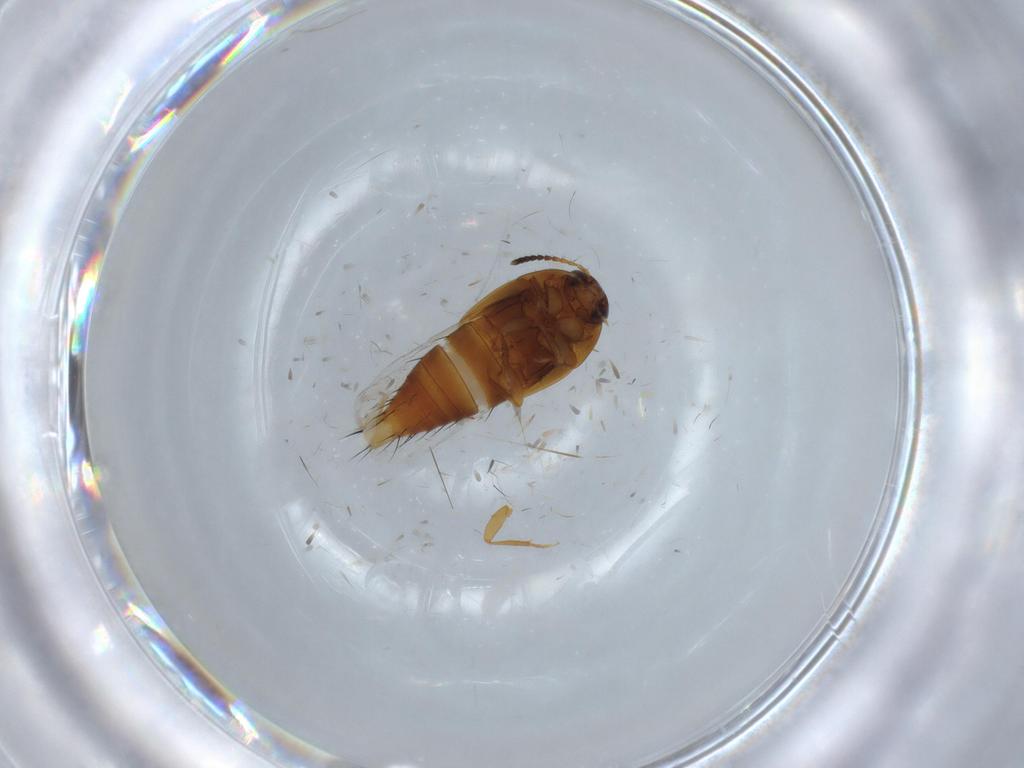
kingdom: Animalia
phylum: Arthropoda
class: Insecta
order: Coleoptera
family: Staphylinidae
